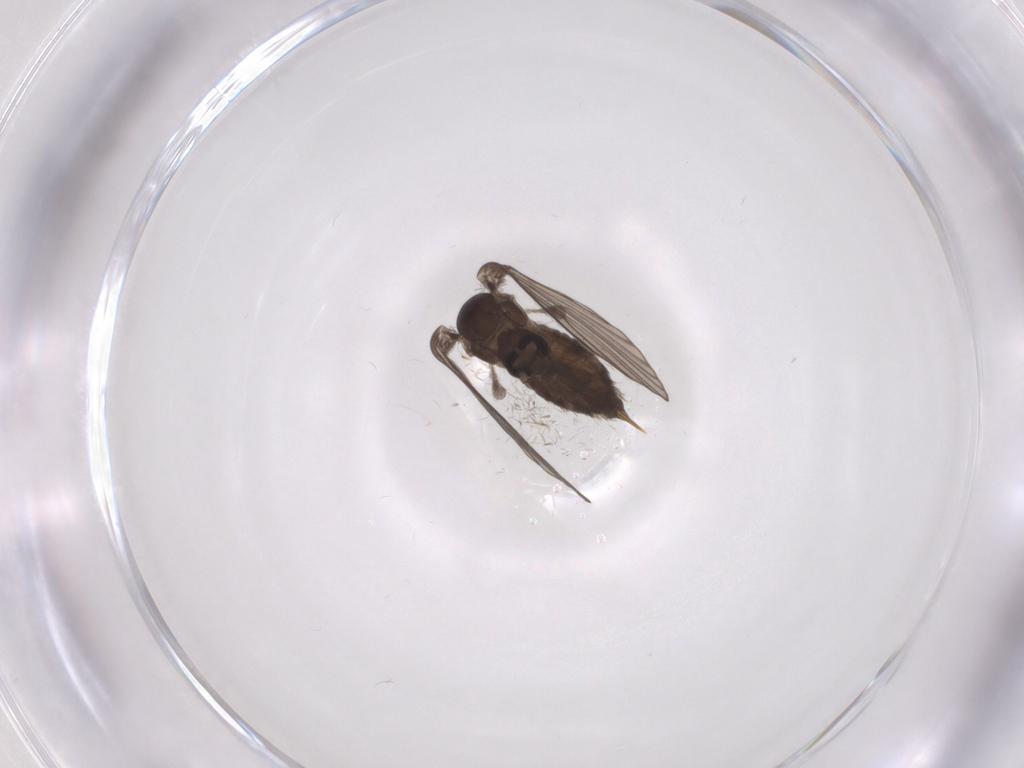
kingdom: Animalia
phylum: Arthropoda
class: Insecta
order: Diptera
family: Psychodidae
